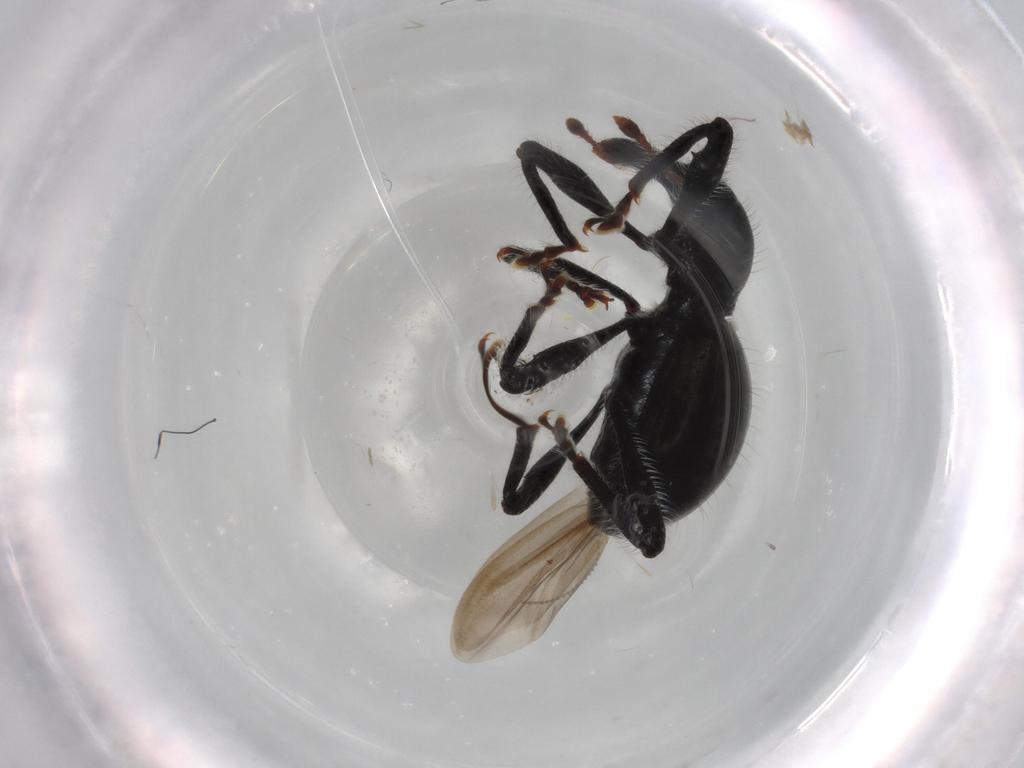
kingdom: Animalia
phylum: Arthropoda
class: Insecta
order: Coleoptera
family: Curculionidae
